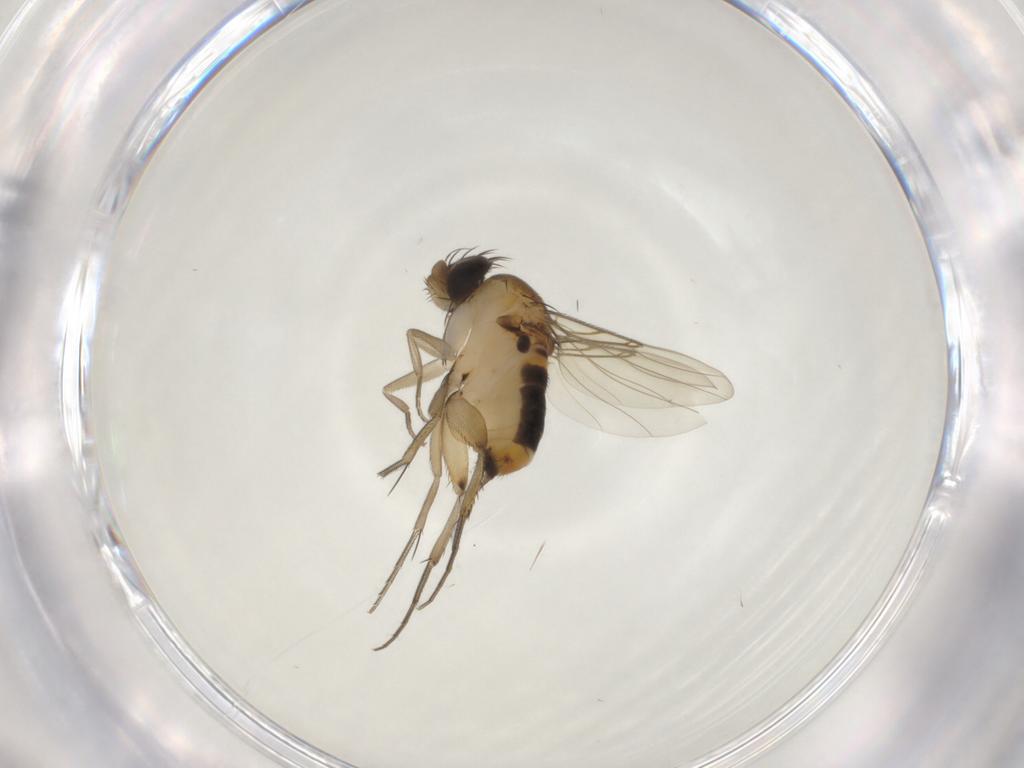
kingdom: Animalia
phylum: Arthropoda
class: Insecta
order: Diptera
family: Phoridae
